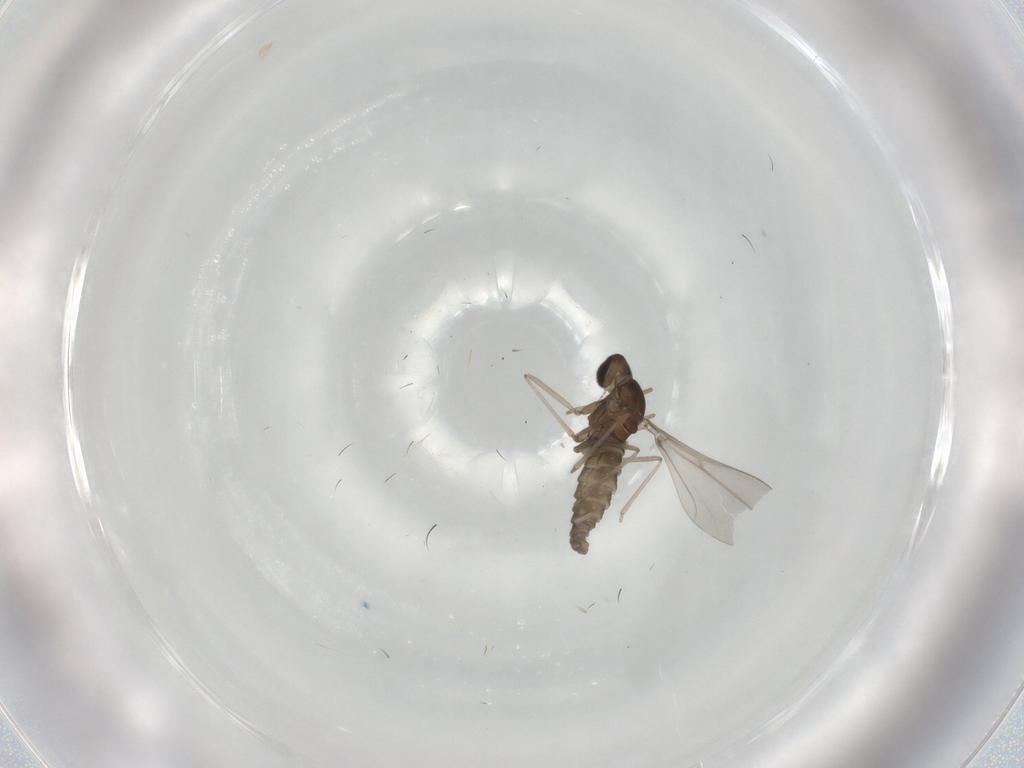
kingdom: Animalia
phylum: Arthropoda
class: Insecta
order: Diptera
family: Cecidomyiidae
